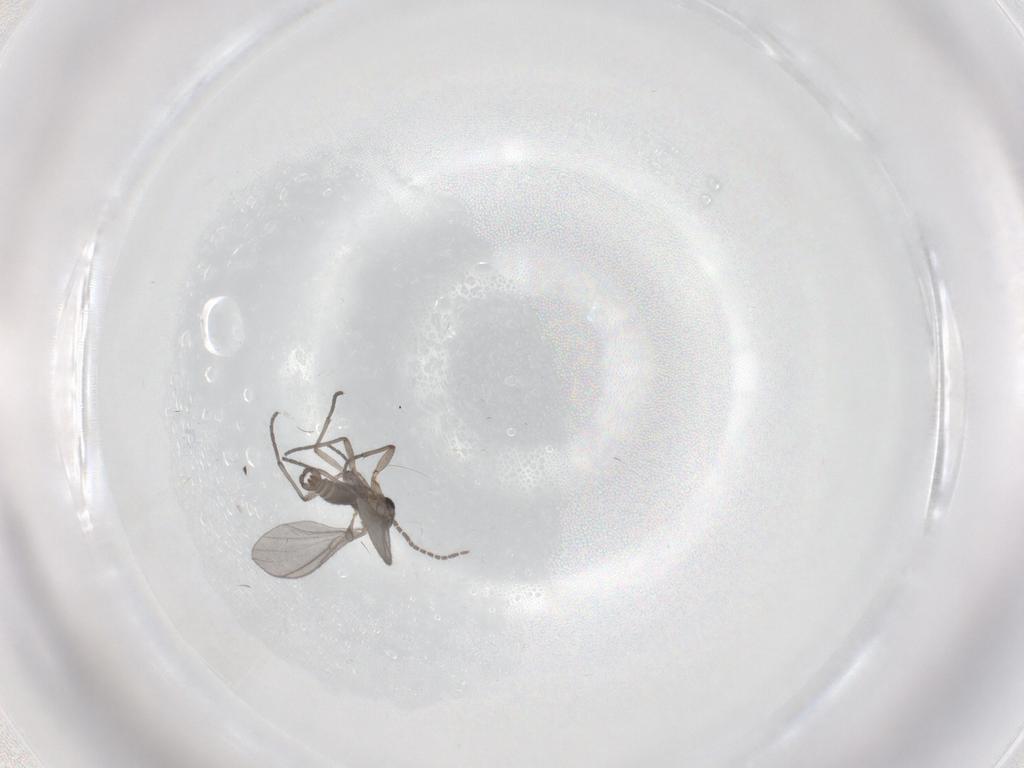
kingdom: Animalia
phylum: Arthropoda
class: Insecta
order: Diptera
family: Sciaridae
